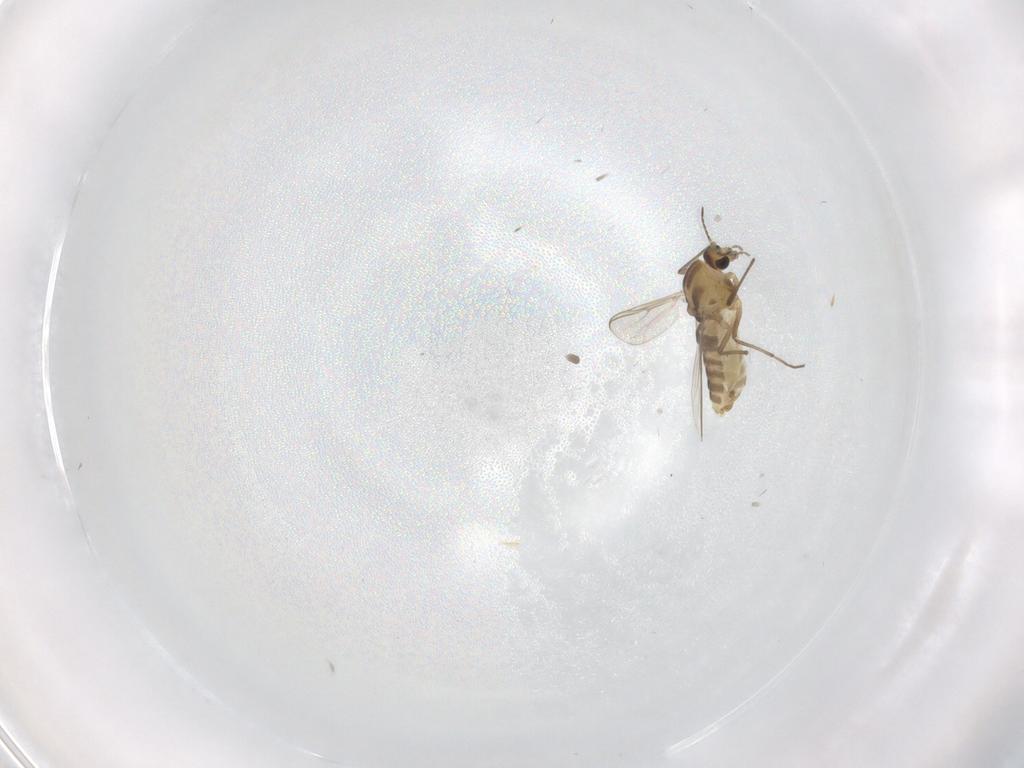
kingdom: Animalia
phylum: Arthropoda
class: Insecta
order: Diptera
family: Limoniidae
